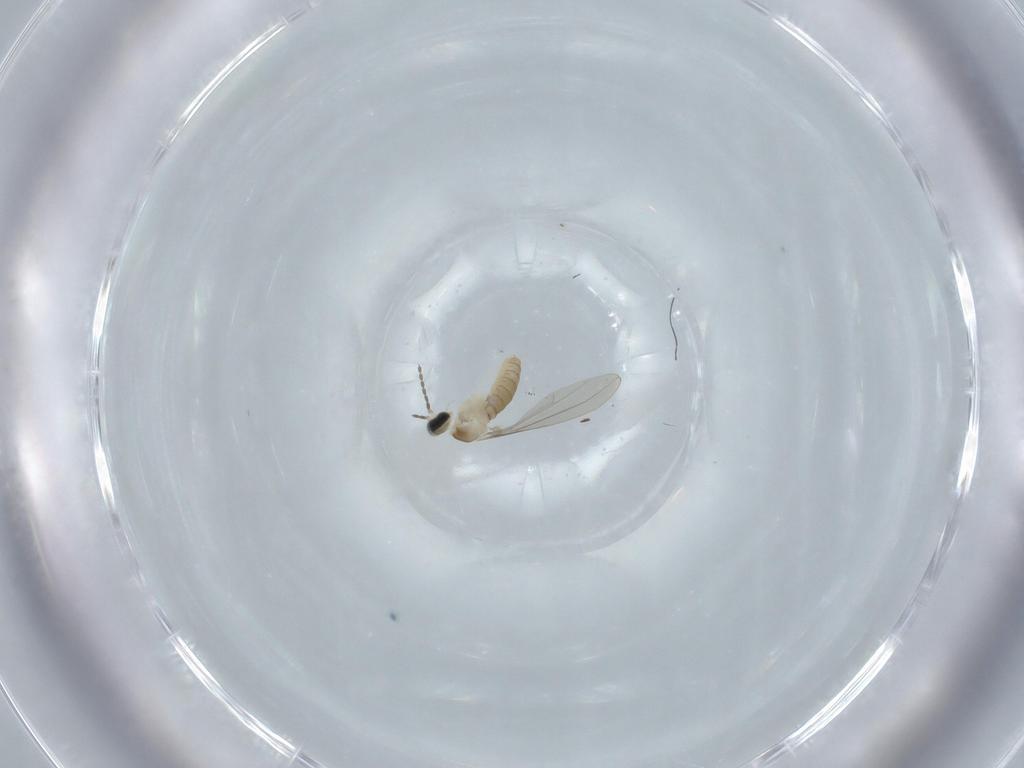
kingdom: Animalia
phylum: Arthropoda
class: Insecta
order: Diptera
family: Cecidomyiidae
